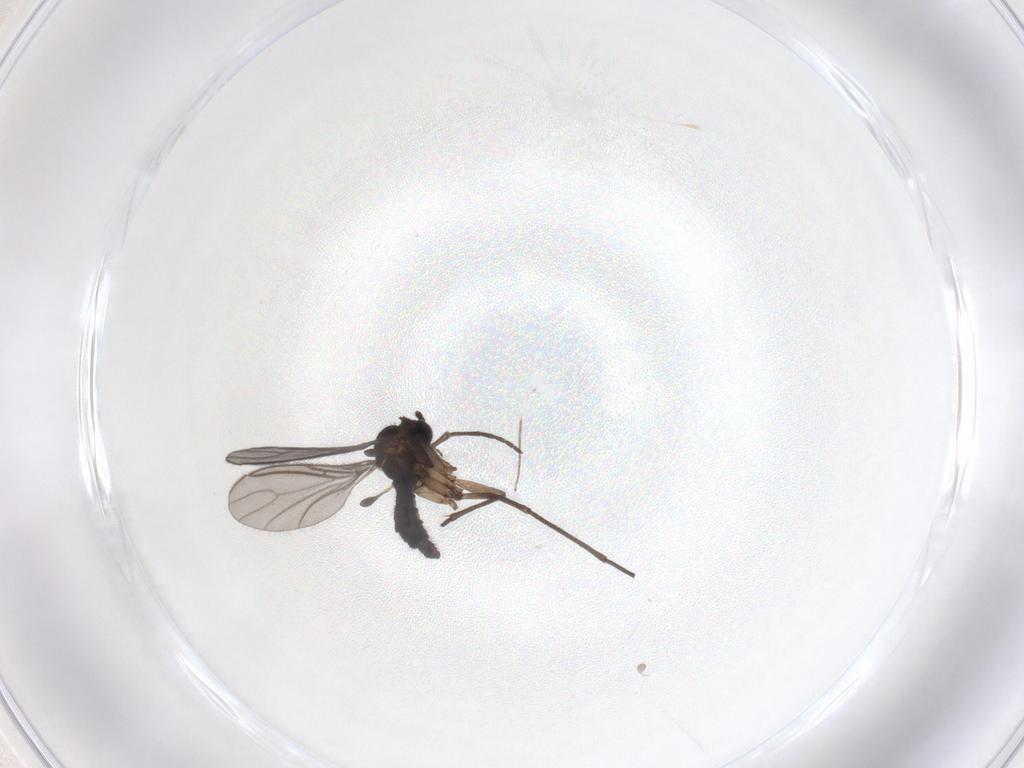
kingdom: Animalia
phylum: Arthropoda
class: Insecta
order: Diptera
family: Sciaridae
